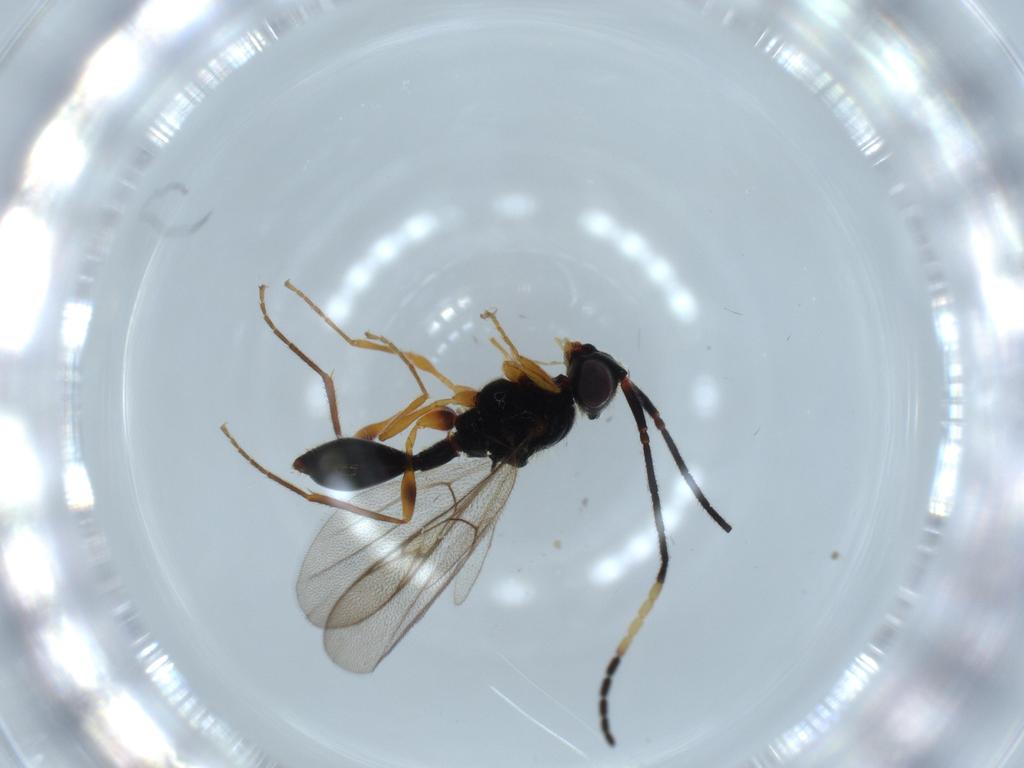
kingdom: Animalia
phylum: Arthropoda
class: Insecta
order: Hymenoptera
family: Diapriidae
